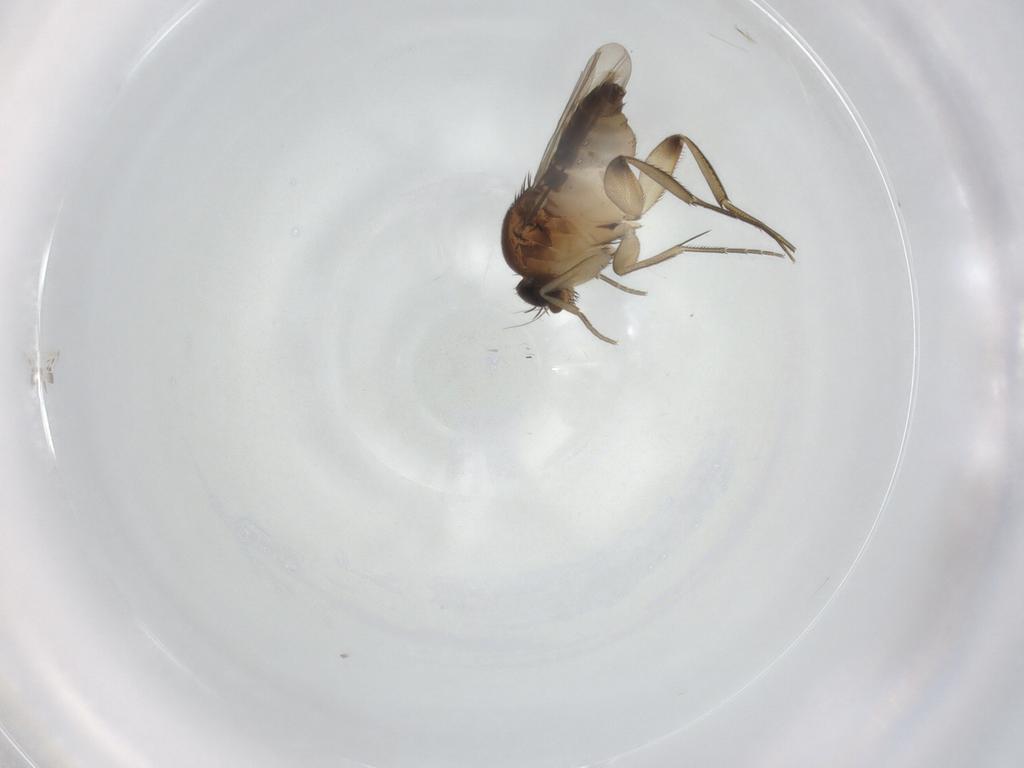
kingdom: Animalia
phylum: Arthropoda
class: Insecta
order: Diptera
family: Phoridae
